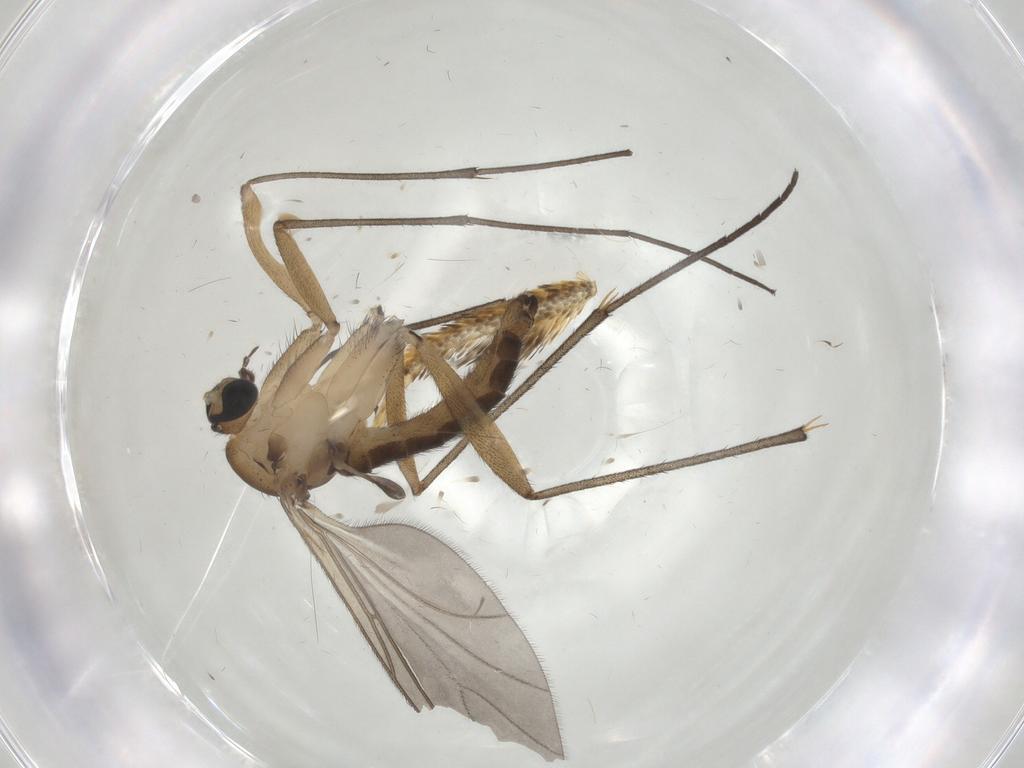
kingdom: Animalia
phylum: Arthropoda
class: Insecta
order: Diptera
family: Sciaridae
